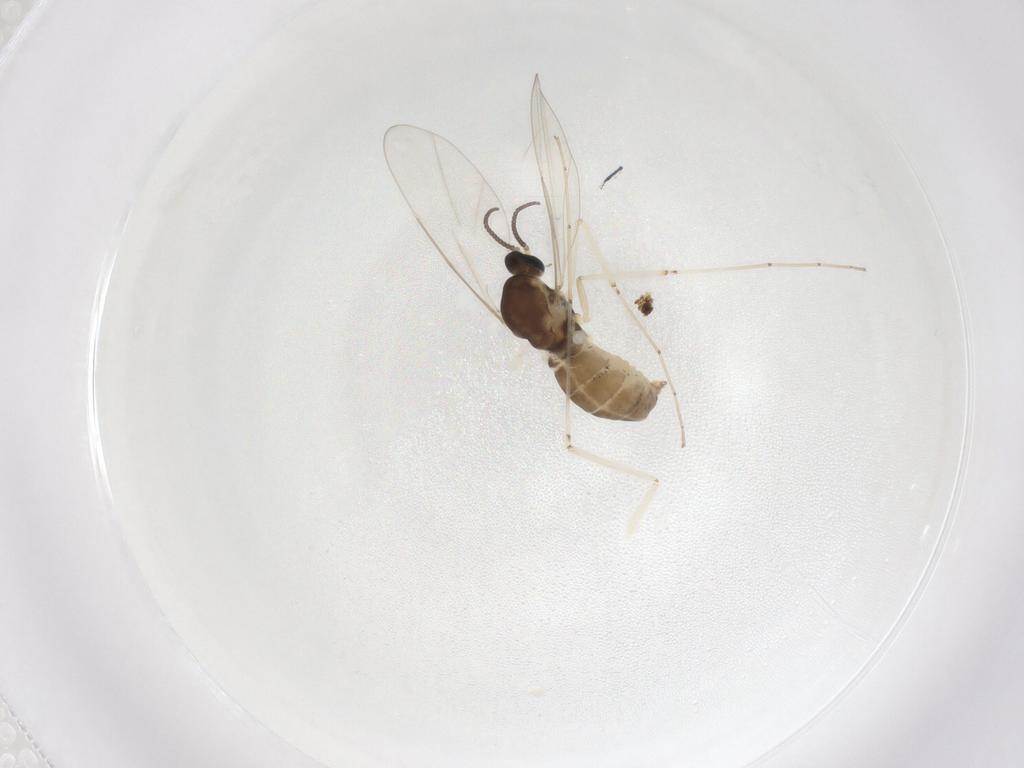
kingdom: Animalia
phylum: Arthropoda
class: Insecta
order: Diptera
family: Cecidomyiidae
